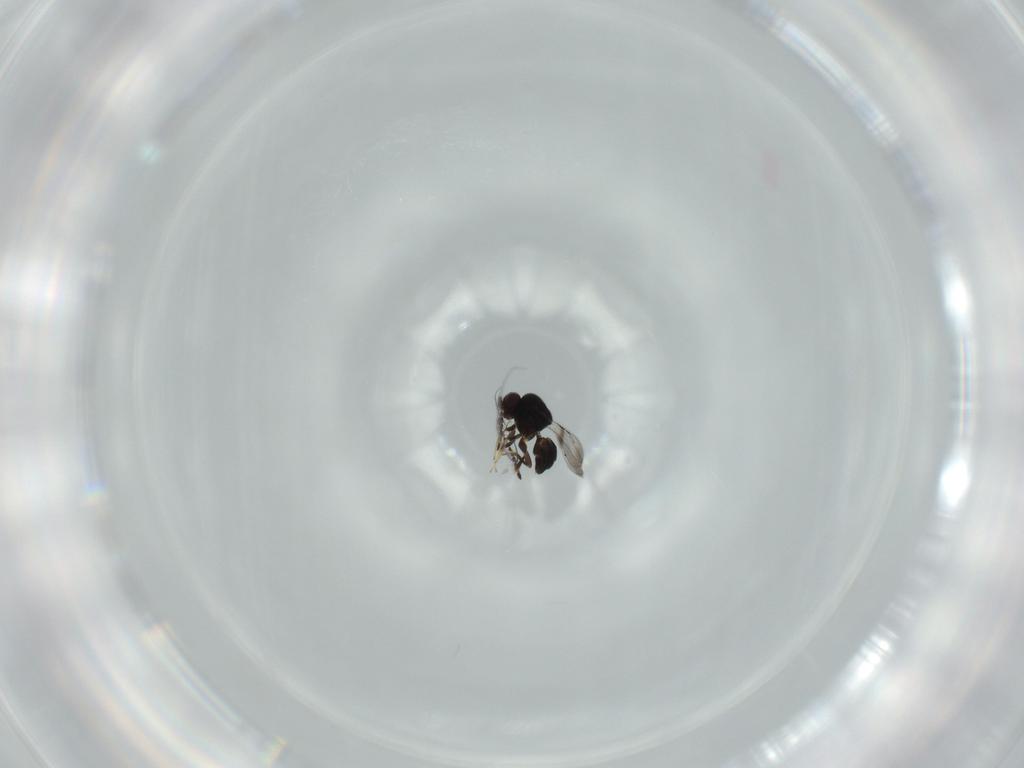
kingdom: Animalia
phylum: Arthropoda
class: Insecta
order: Hymenoptera
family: Ceraphronidae
